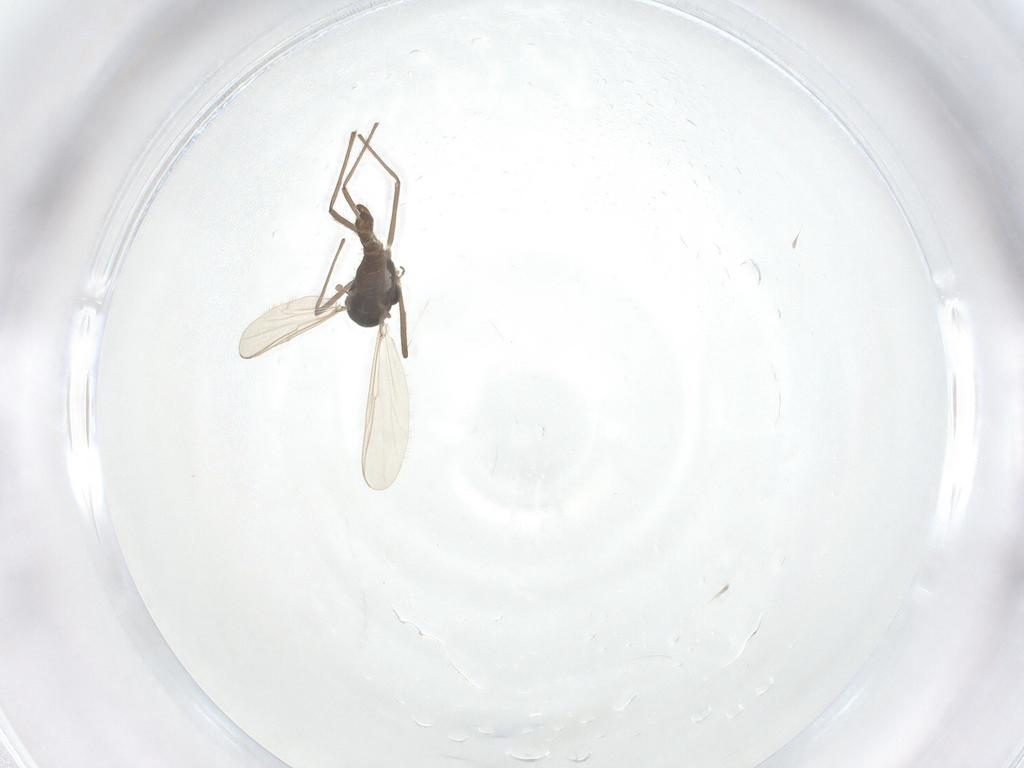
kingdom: Animalia
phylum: Arthropoda
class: Insecta
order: Diptera
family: Chironomidae
